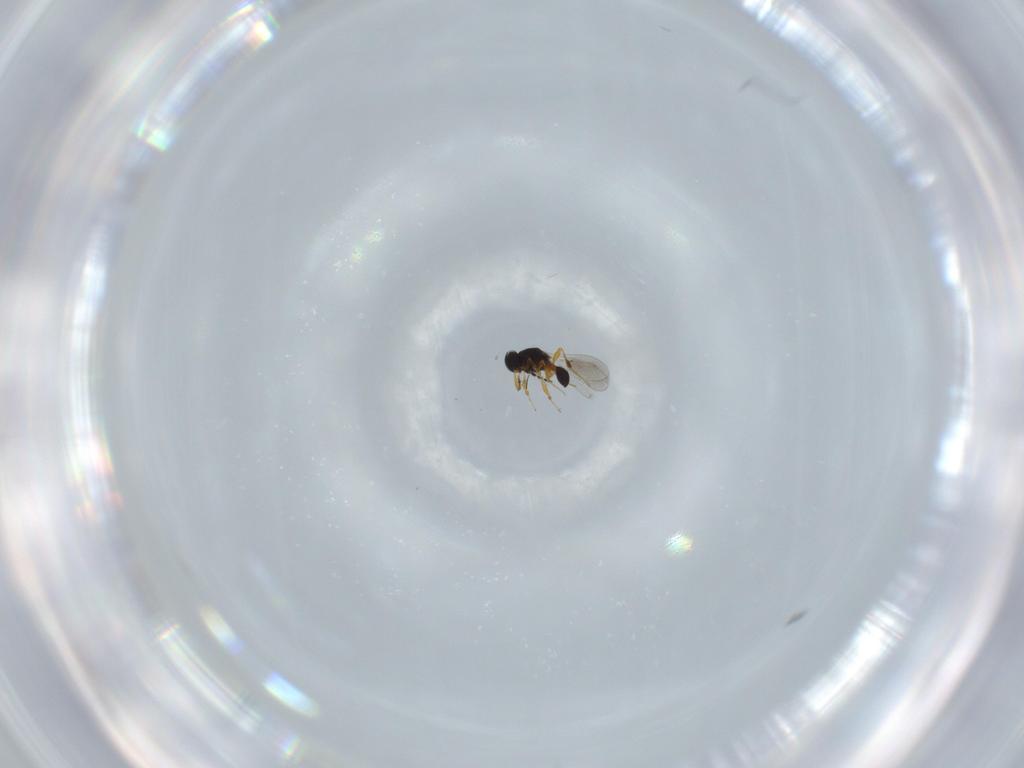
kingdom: Animalia
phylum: Arthropoda
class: Insecta
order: Hymenoptera
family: Platygastridae
